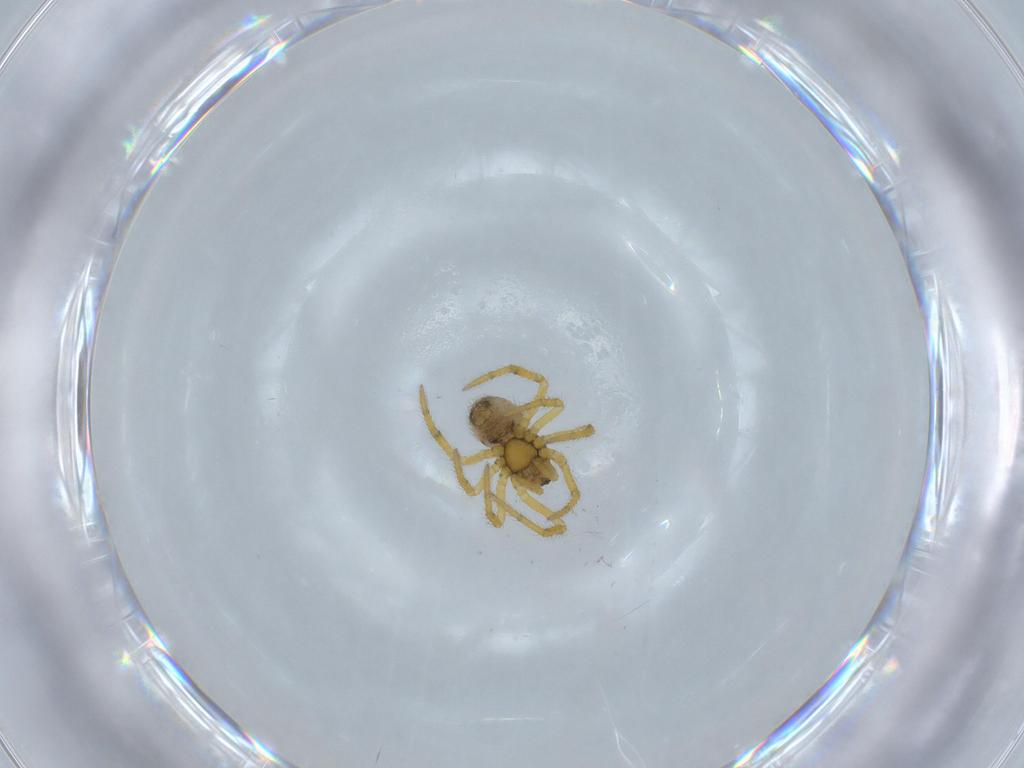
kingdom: Animalia
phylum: Arthropoda
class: Arachnida
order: Araneae
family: Theridiidae
